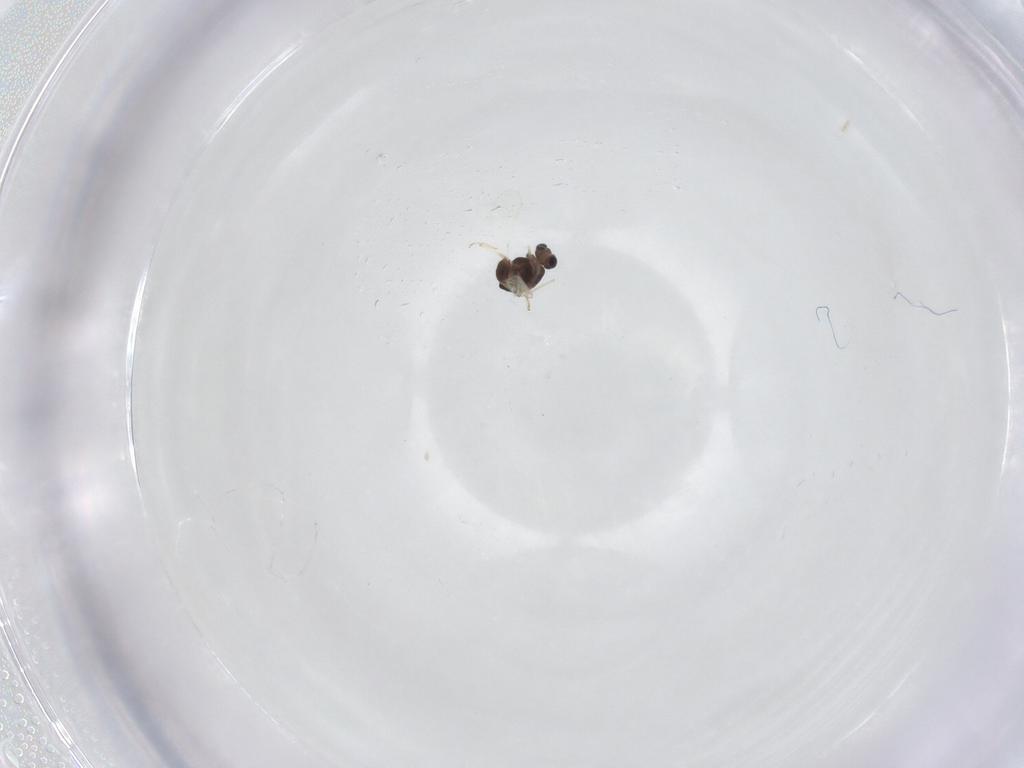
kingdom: Animalia
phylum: Arthropoda
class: Insecta
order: Diptera
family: Chironomidae
